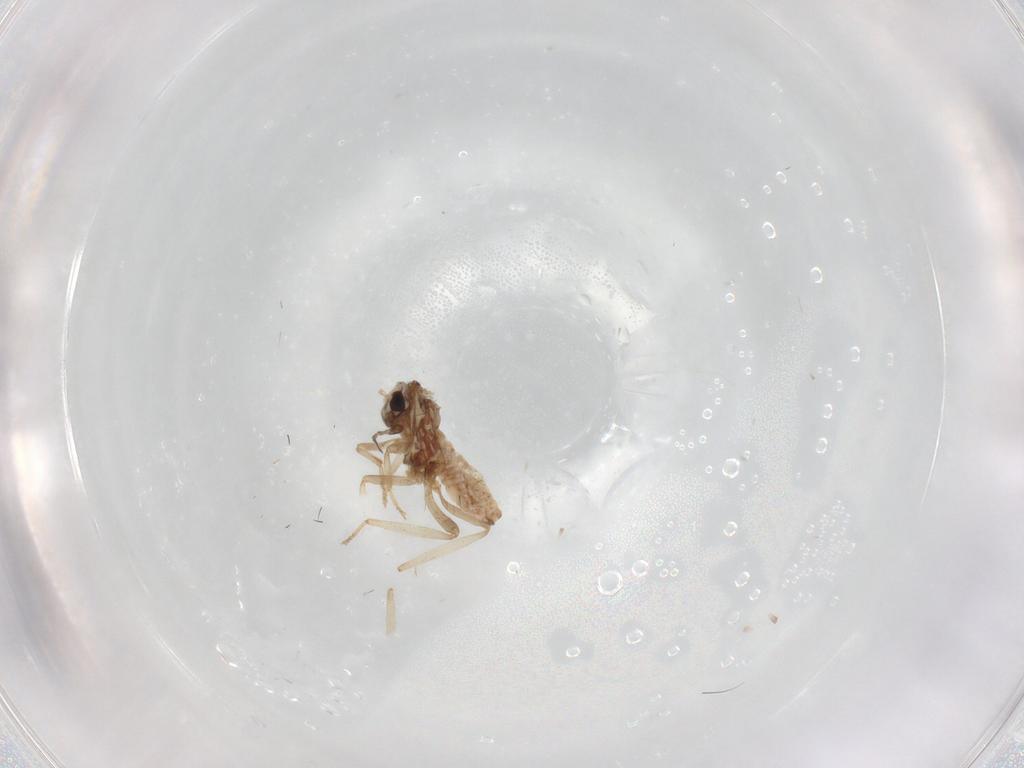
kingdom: Animalia
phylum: Arthropoda
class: Insecta
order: Neuroptera
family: Coniopterygidae
